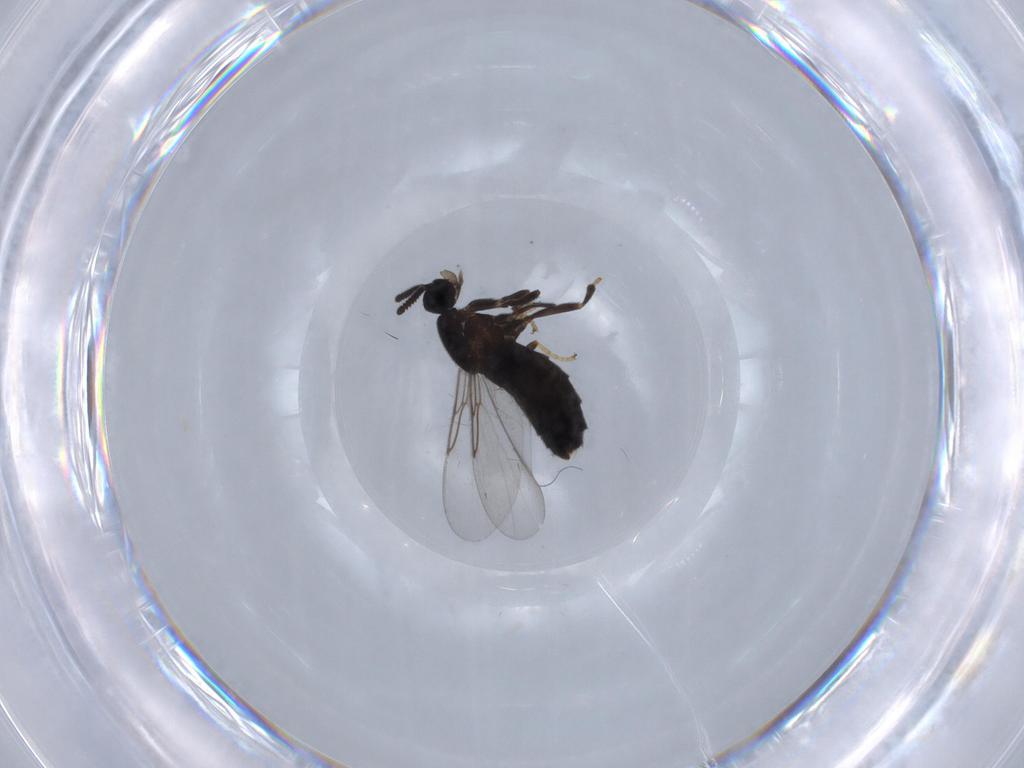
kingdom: Animalia
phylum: Arthropoda
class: Insecta
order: Diptera
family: Scatopsidae
